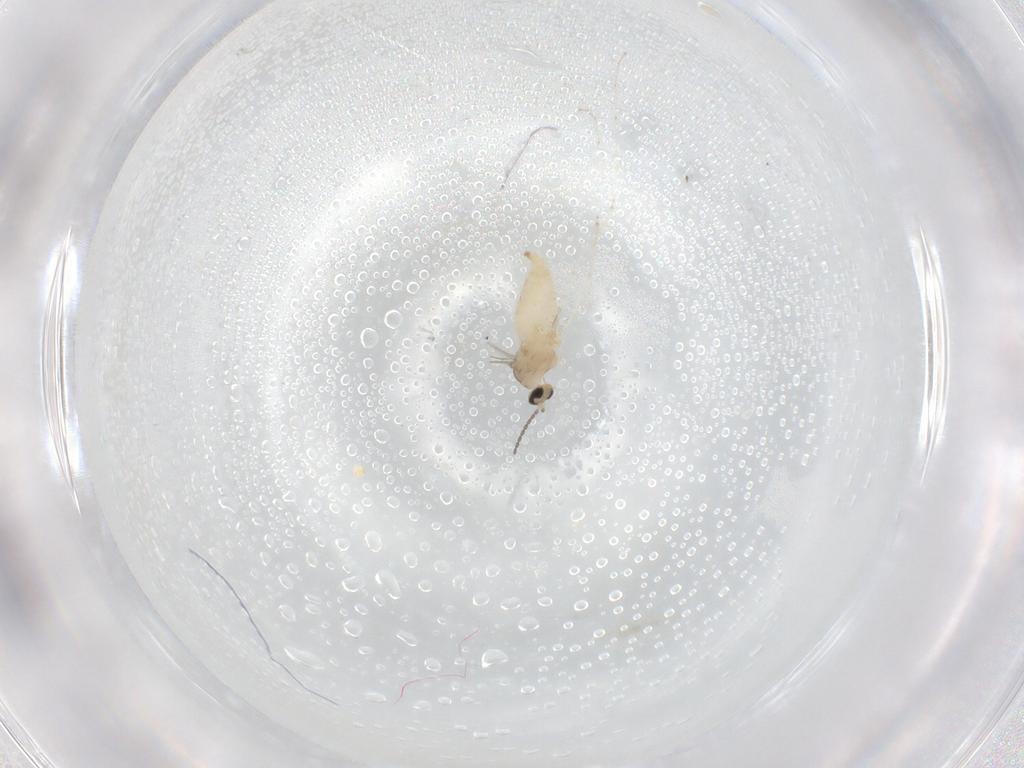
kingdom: Animalia
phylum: Arthropoda
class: Insecta
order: Diptera
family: Cecidomyiidae
